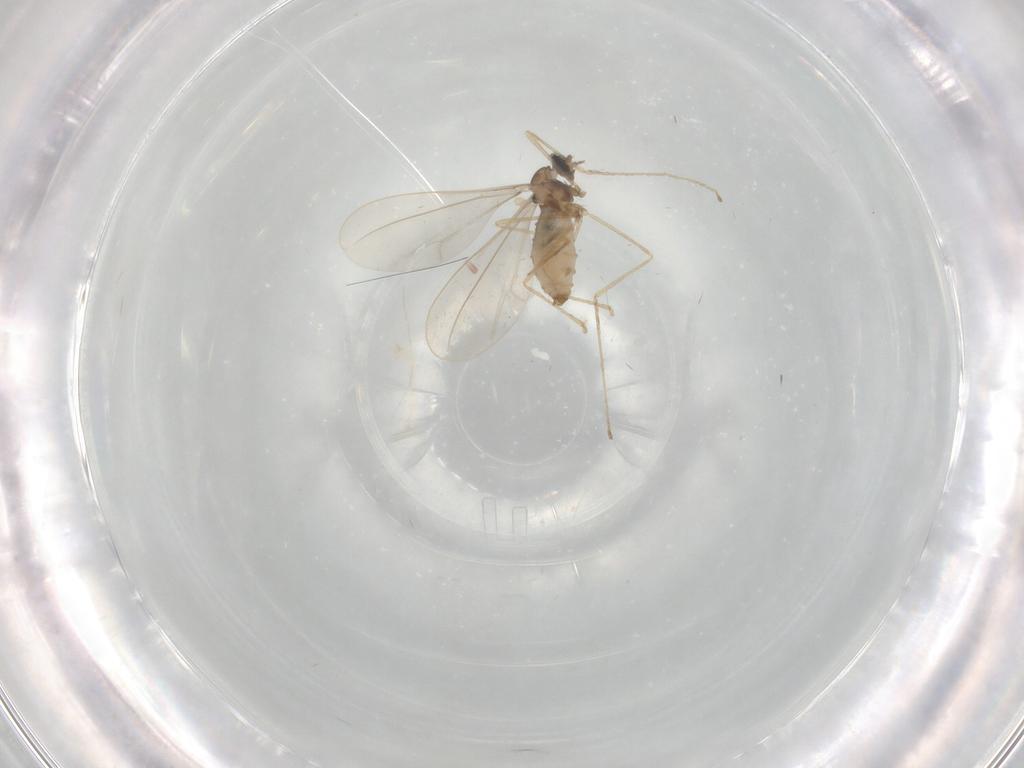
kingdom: Animalia
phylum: Arthropoda
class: Insecta
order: Diptera
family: Cecidomyiidae
